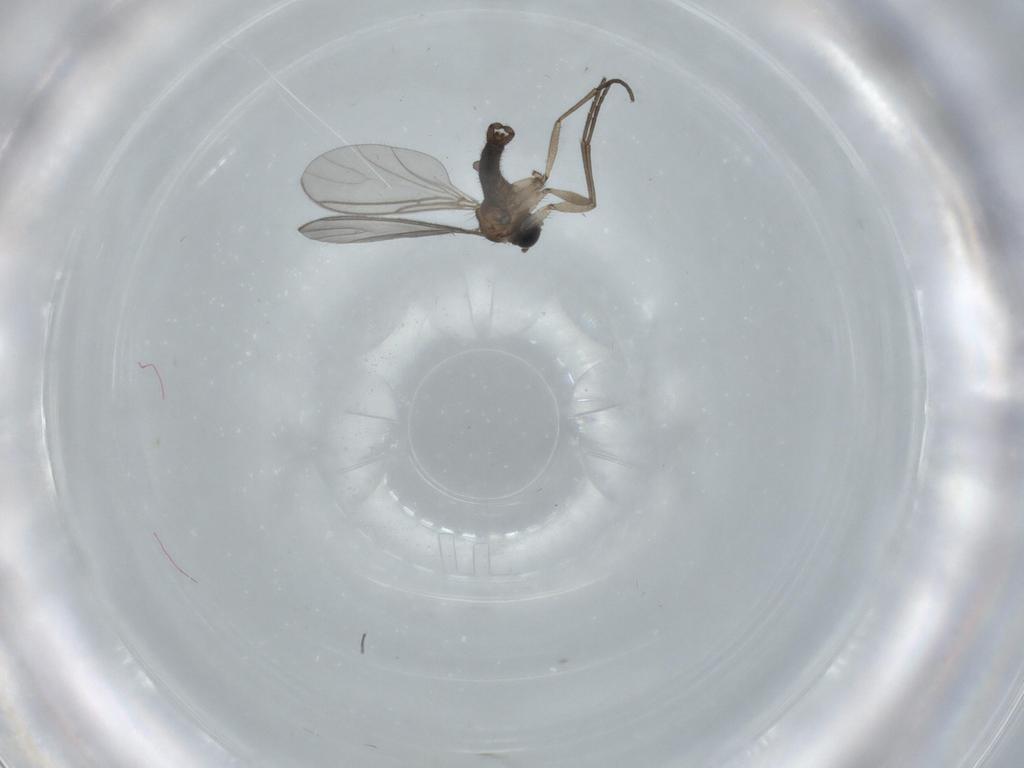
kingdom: Animalia
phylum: Arthropoda
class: Insecta
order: Diptera
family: Sciaridae
